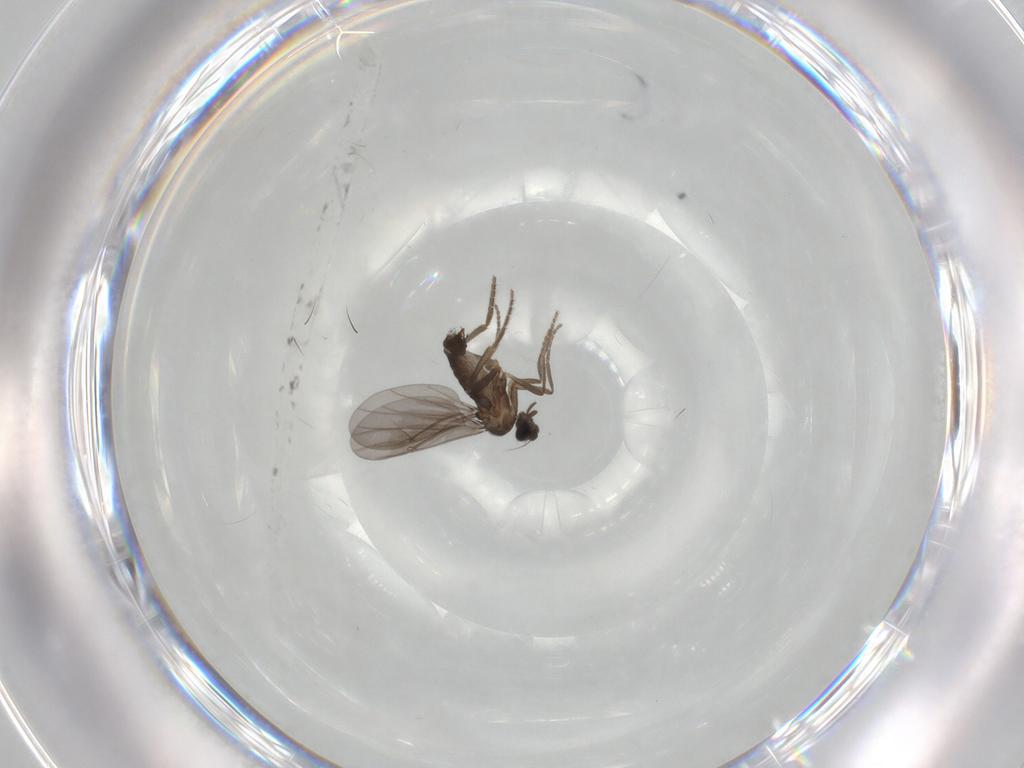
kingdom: Animalia
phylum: Arthropoda
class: Insecta
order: Diptera
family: Phoridae
